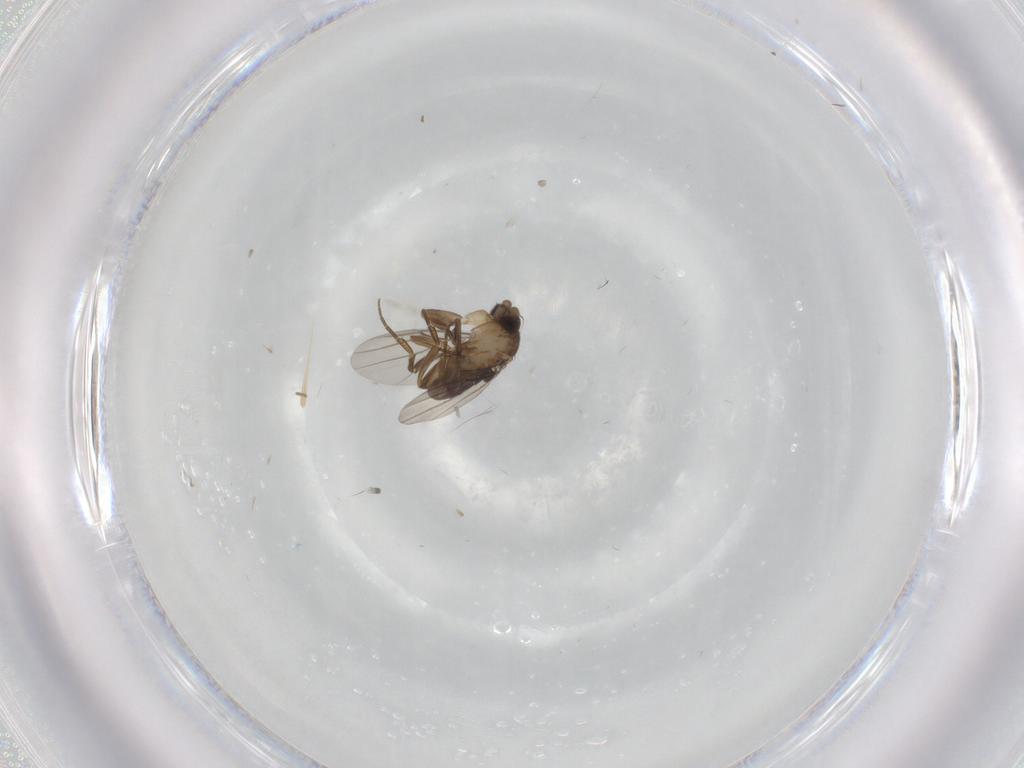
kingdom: Animalia
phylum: Arthropoda
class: Insecta
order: Diptera
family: Phoridae
